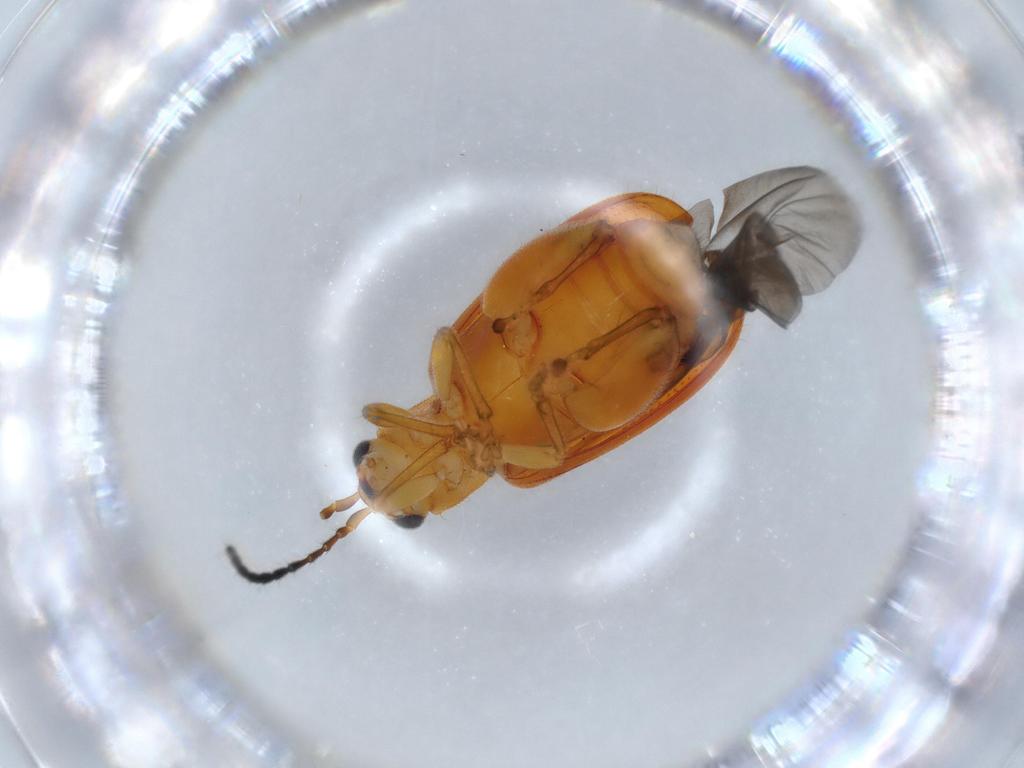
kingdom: Animalia
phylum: Arthropoda
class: Insecta
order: Coleoptera
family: Chrysomelidae
